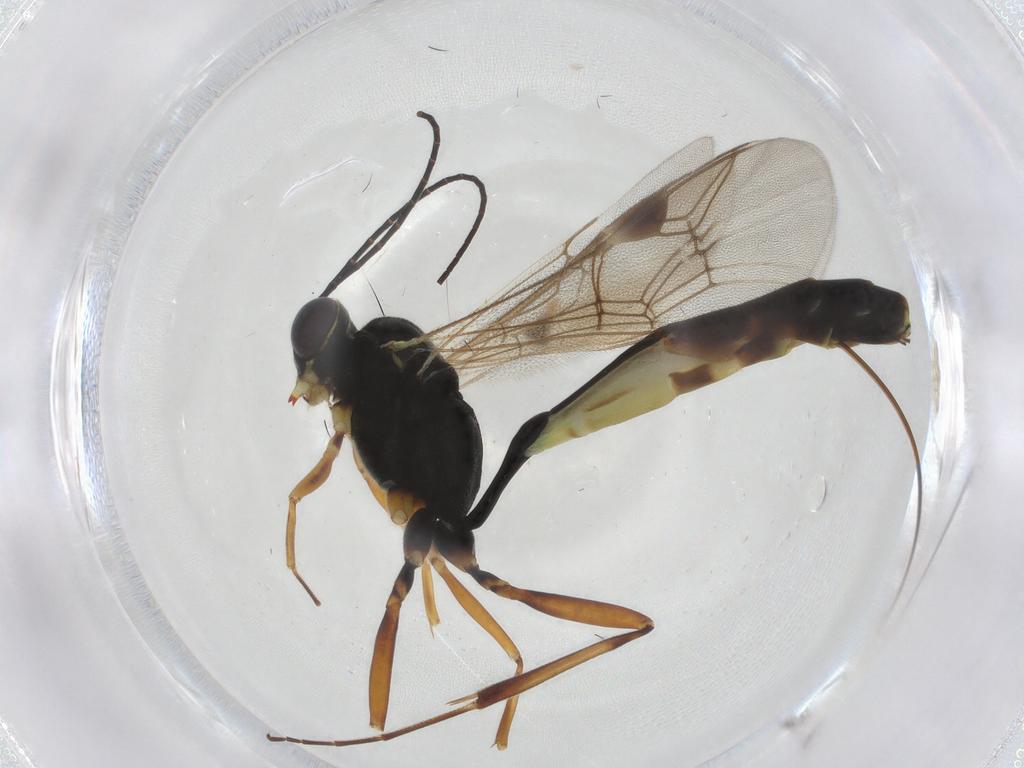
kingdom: Animalia
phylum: Arthropoda
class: Insecta
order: Hymenoptera
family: Ichneumonidae
